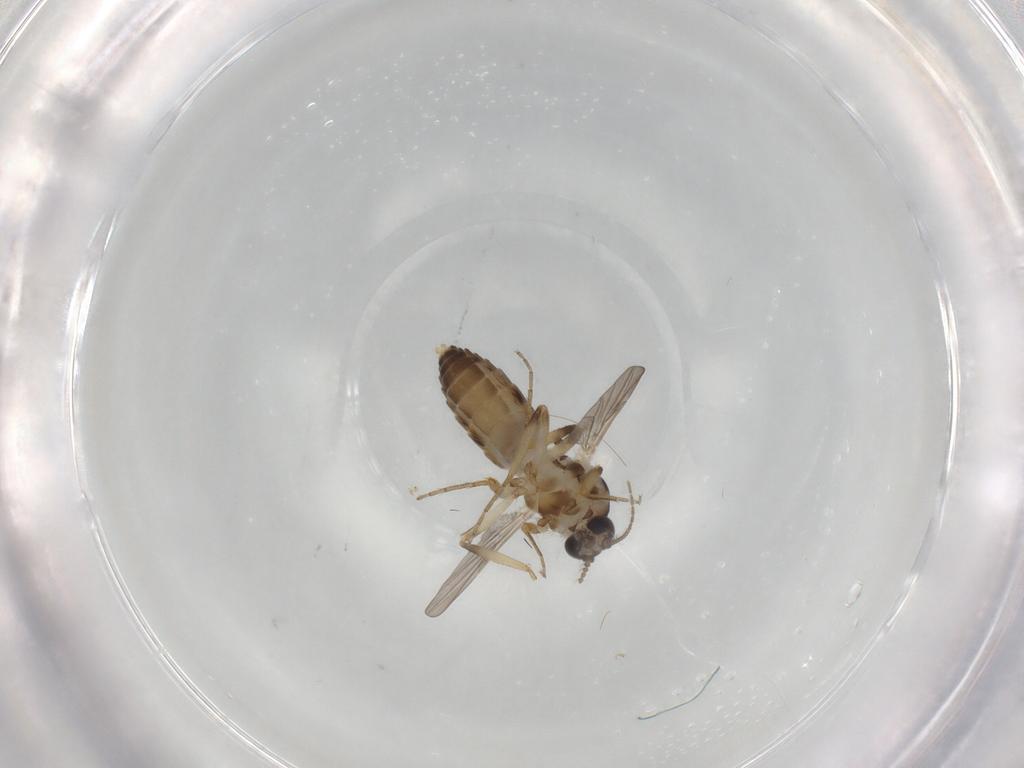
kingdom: Animalia
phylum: Arthropoda
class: Insecta
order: Diptera
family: Ceratopogonidae
